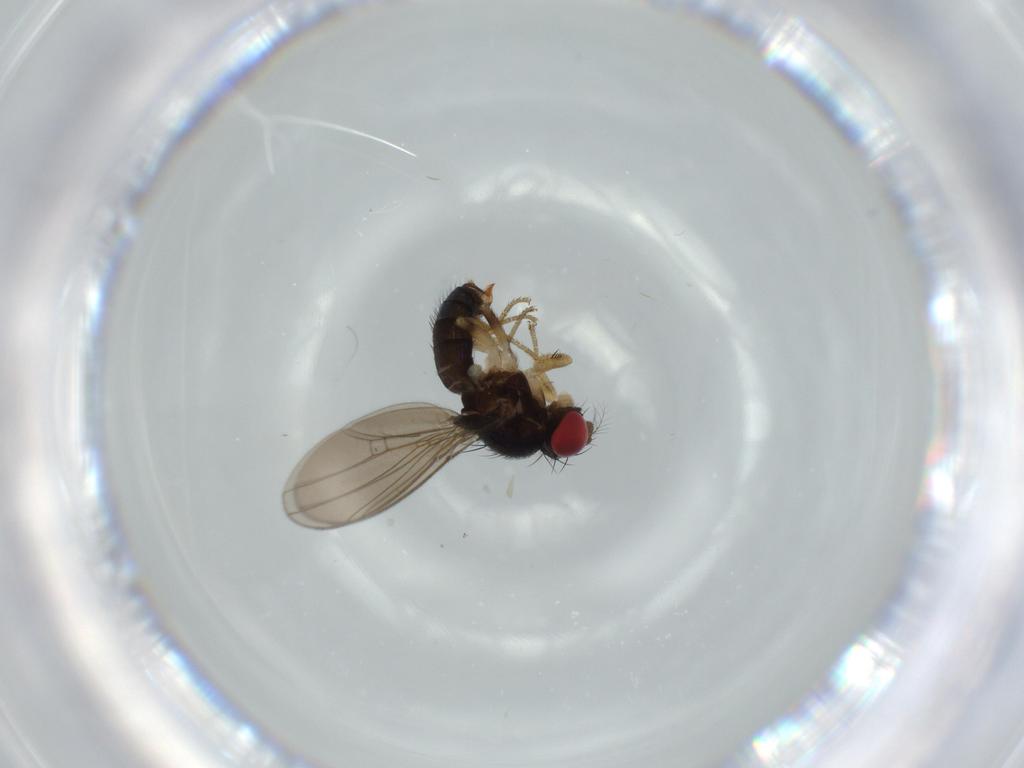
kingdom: Animalia
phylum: Arthropoda
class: Insecta
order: Diptera
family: Drosophilidae
